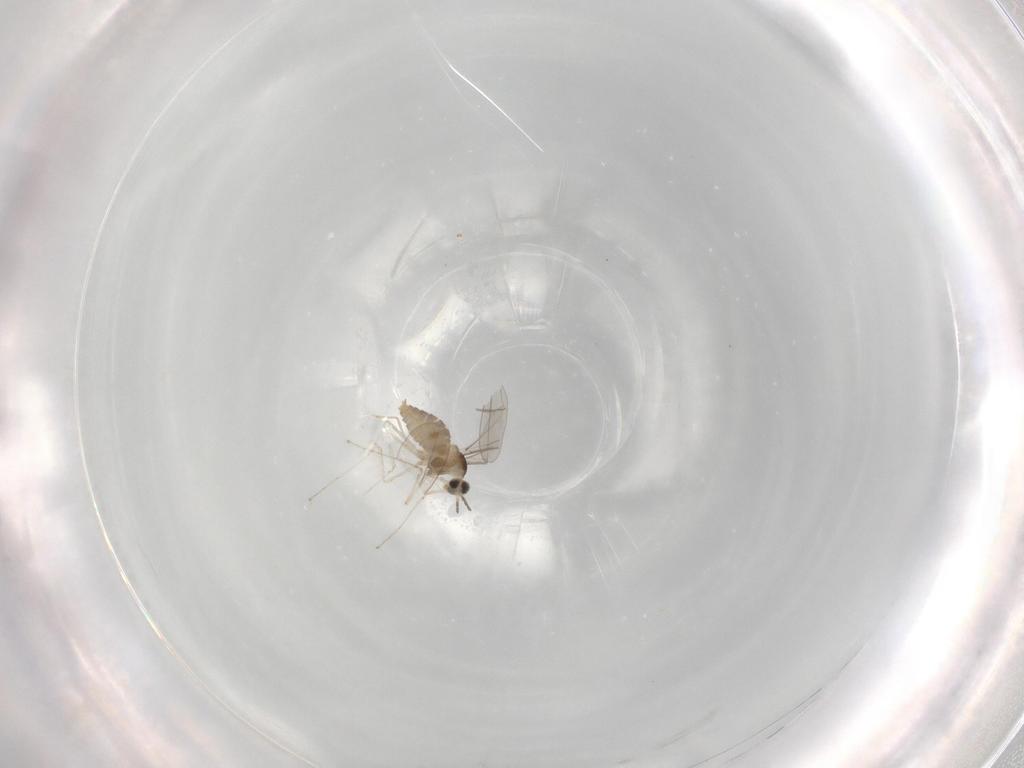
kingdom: Animalia
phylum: Arthropoda
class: Insecta
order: Diptera
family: Cecidomyiidae
